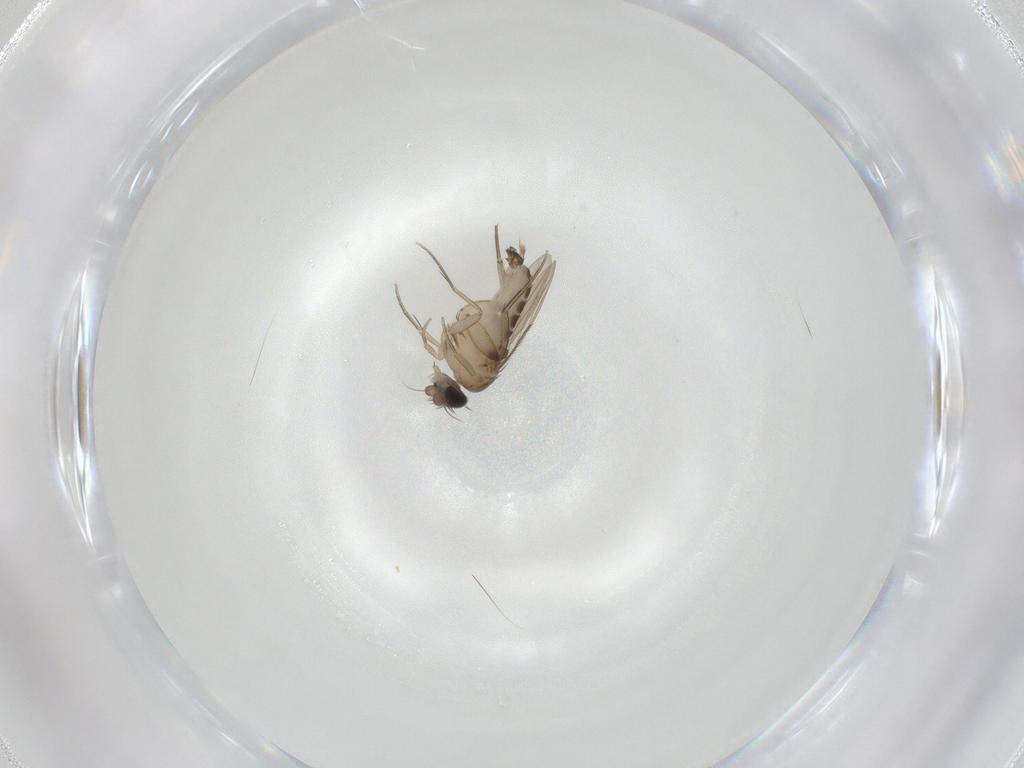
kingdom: Animalia
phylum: Arthropoda
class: Insecta
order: Diptera
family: Phoridae
